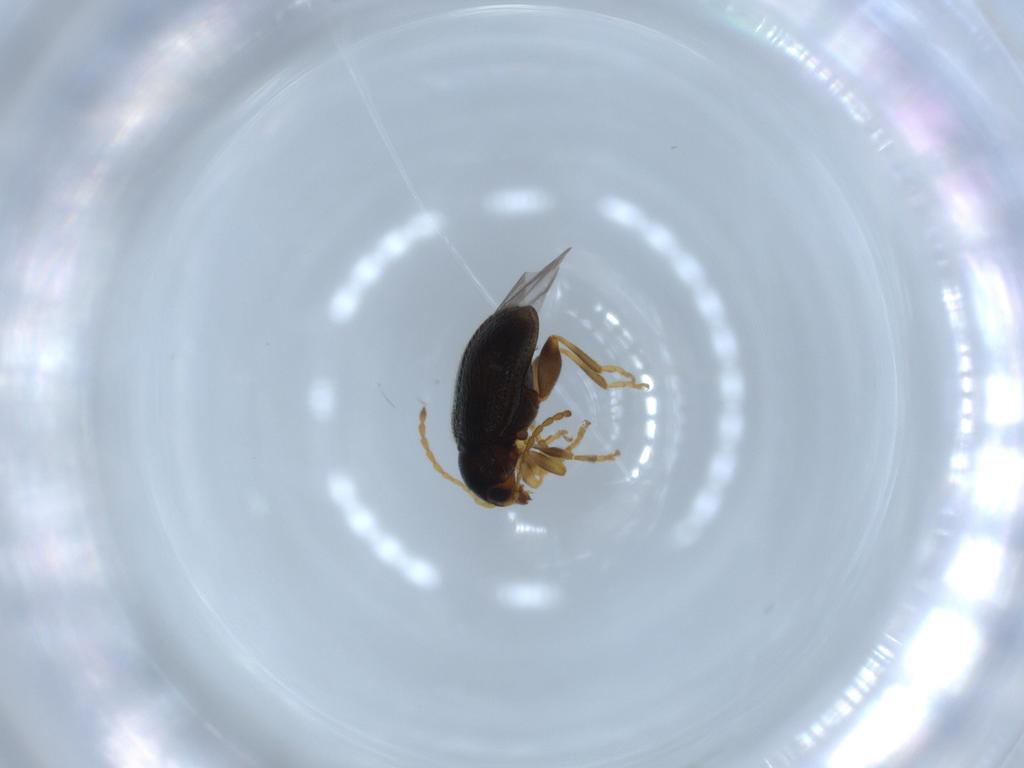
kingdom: Animalia
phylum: Arthropoda
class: Insecta
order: Coleoptera
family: Chrysomelidae
